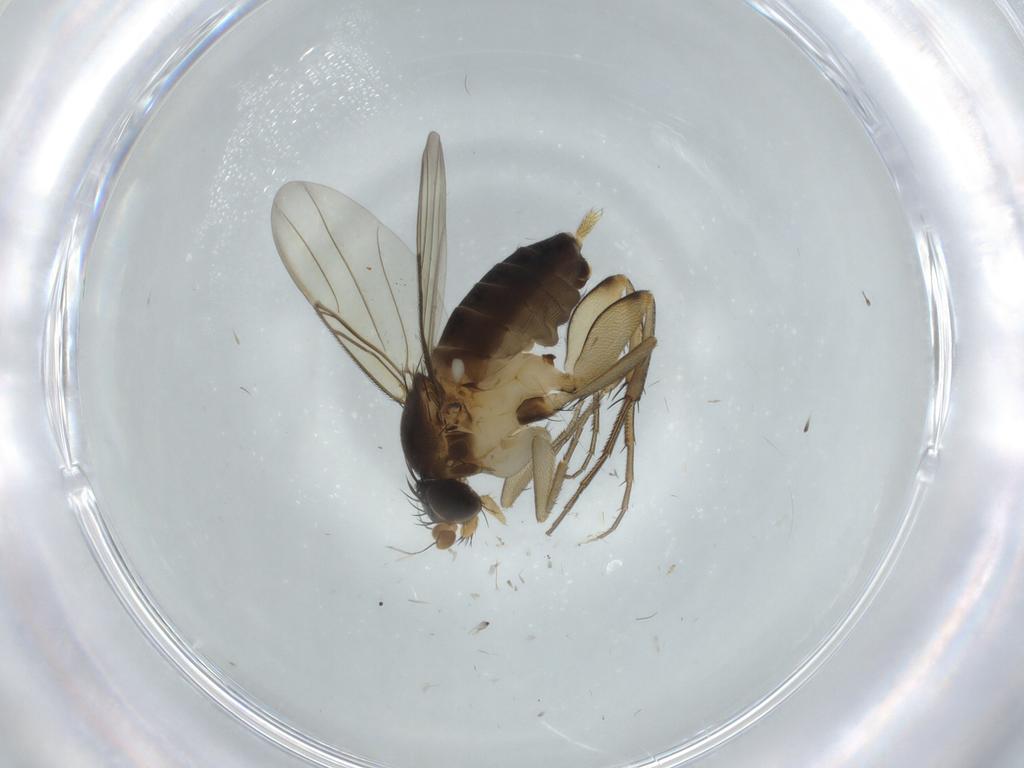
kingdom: Animalia
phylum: Arthropoda
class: Insecta
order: Diptera
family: Phoridae
